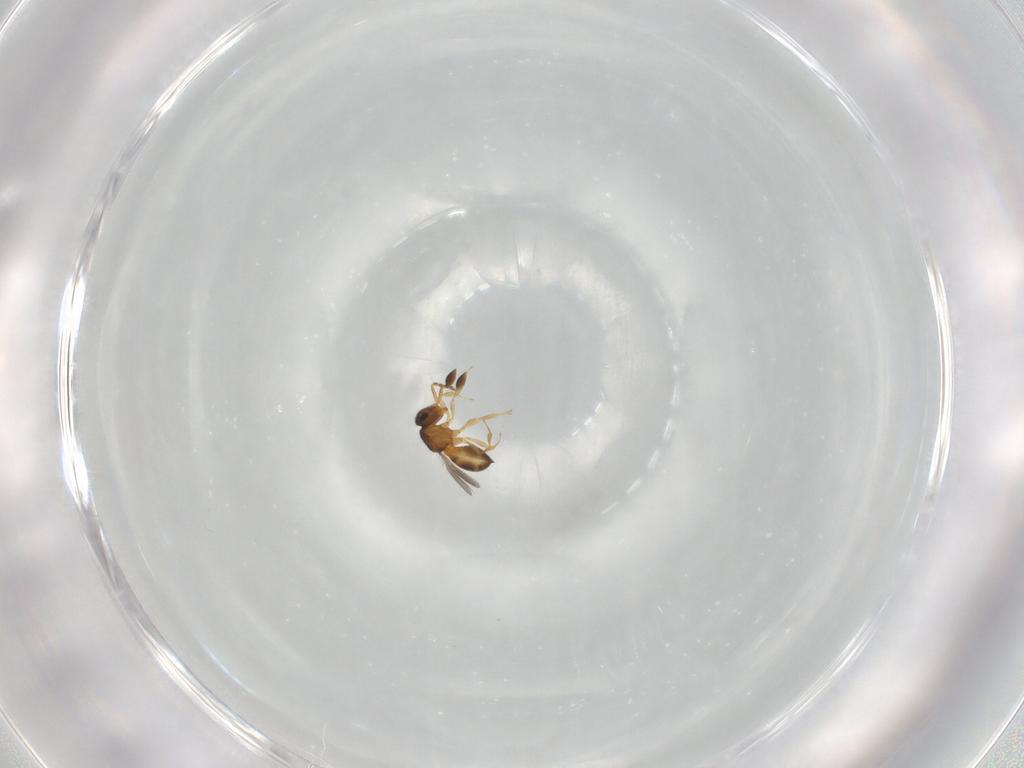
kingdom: Animalia
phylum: Arthropoda
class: Insecta
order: Hymenoptera
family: Scelionidae
